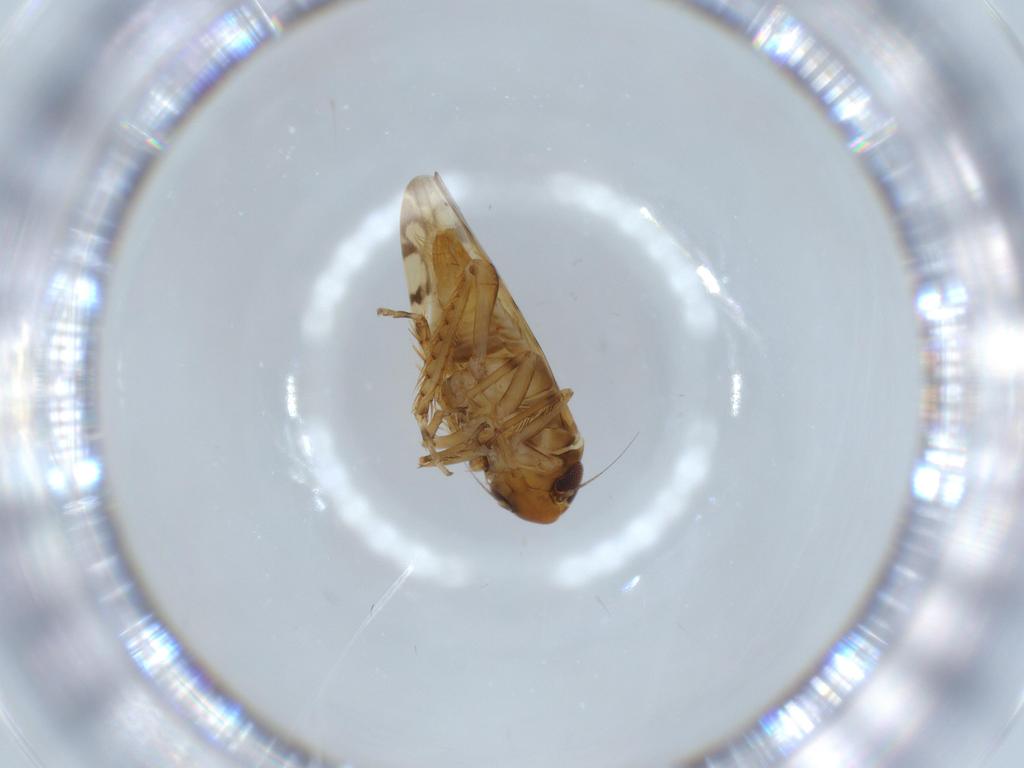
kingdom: Animalia
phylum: Arthropoda
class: Insecta
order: Hemiptera
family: Cicadellidae
